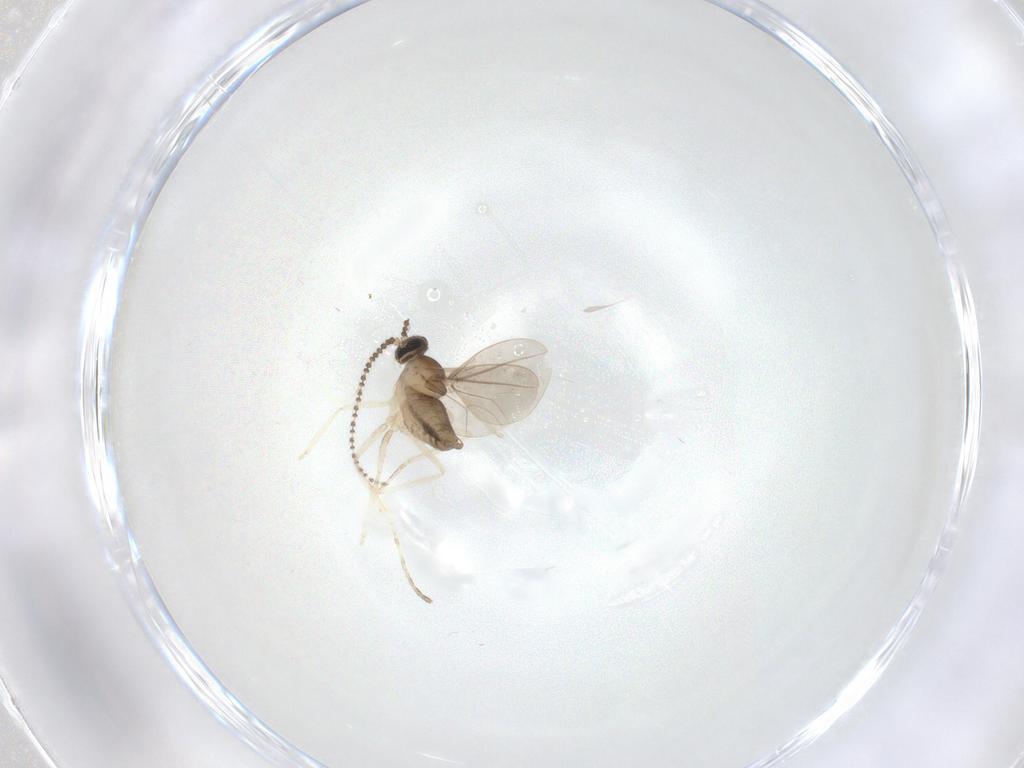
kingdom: Animalia
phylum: Arthropoda
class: Insecta
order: Diptera
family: Cecidomyiidae
